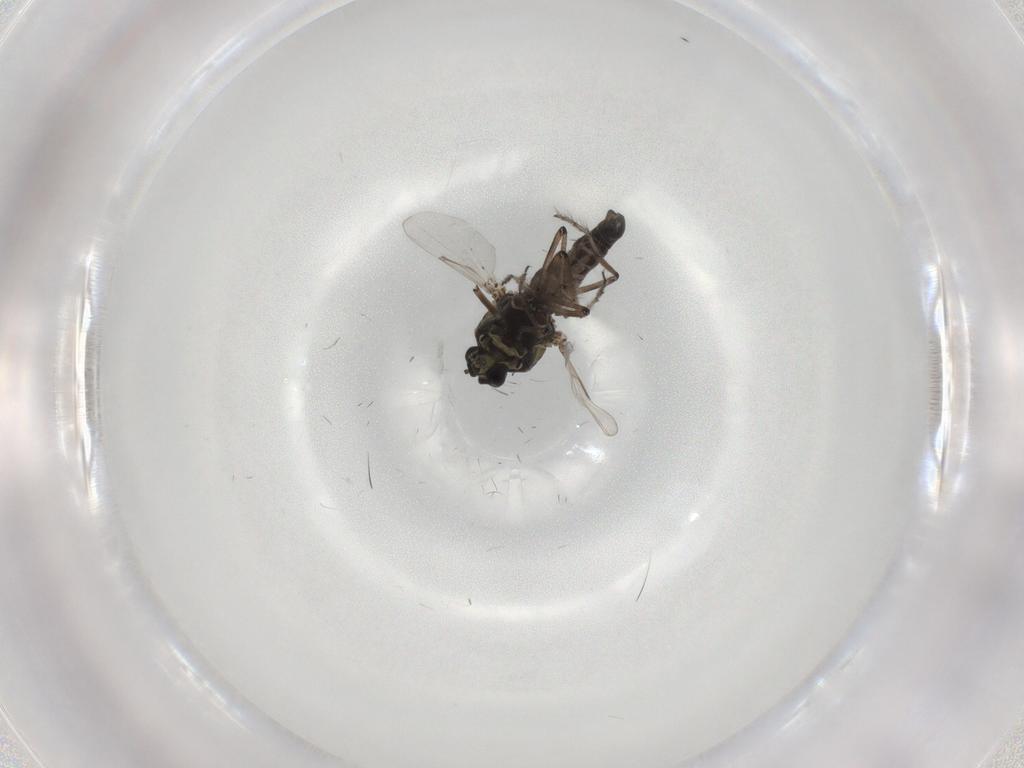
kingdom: Animalia
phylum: Arthropoda
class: Insecta
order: Diptera
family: Ceratopogonidae
